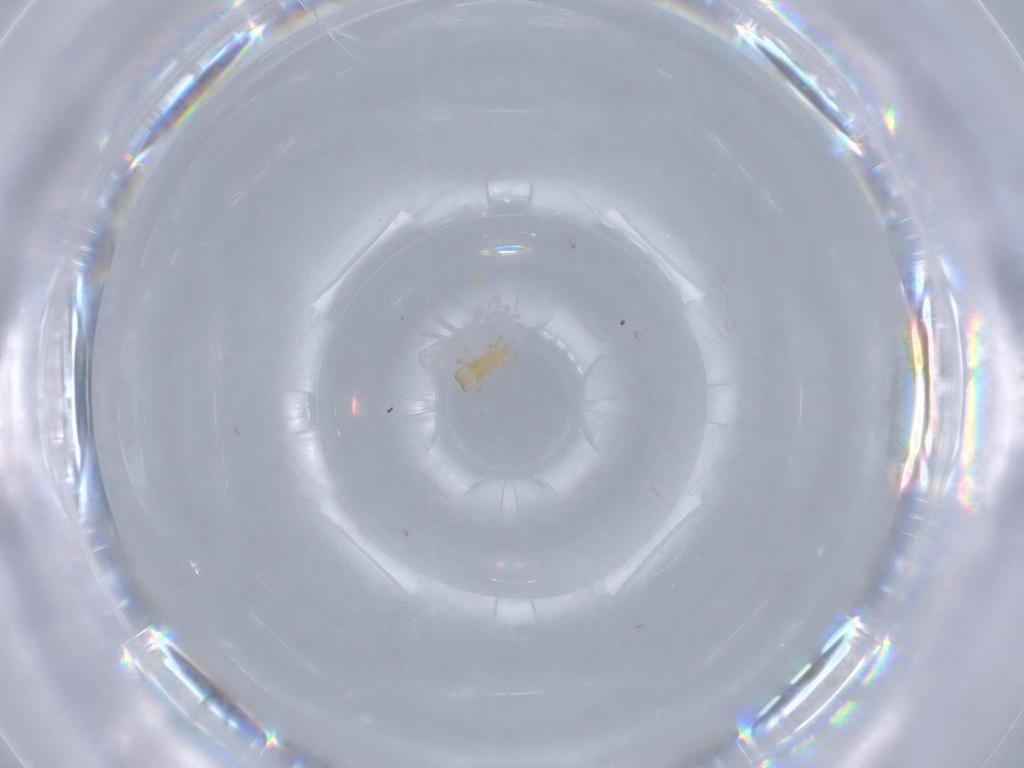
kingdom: Animalia
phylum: Arthropoda
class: Arachnida
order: Mesostigmata
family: Digamasellidae
